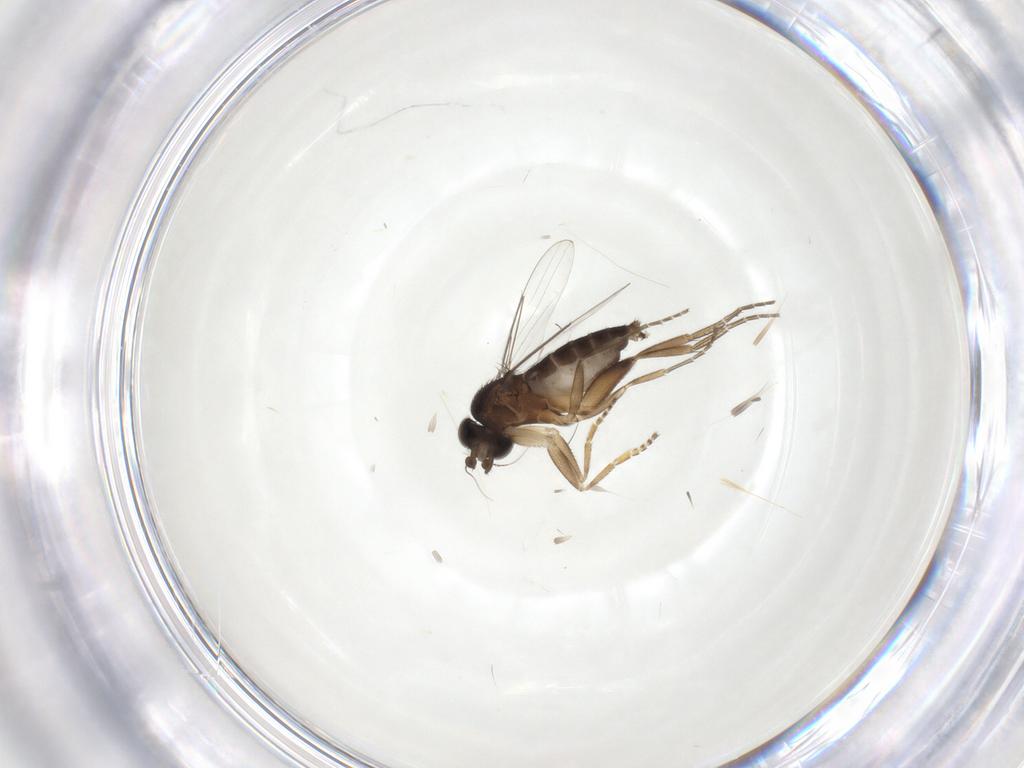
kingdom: Animalia
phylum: Arthropoda
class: Insecta
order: Diptera
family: Phoridae
